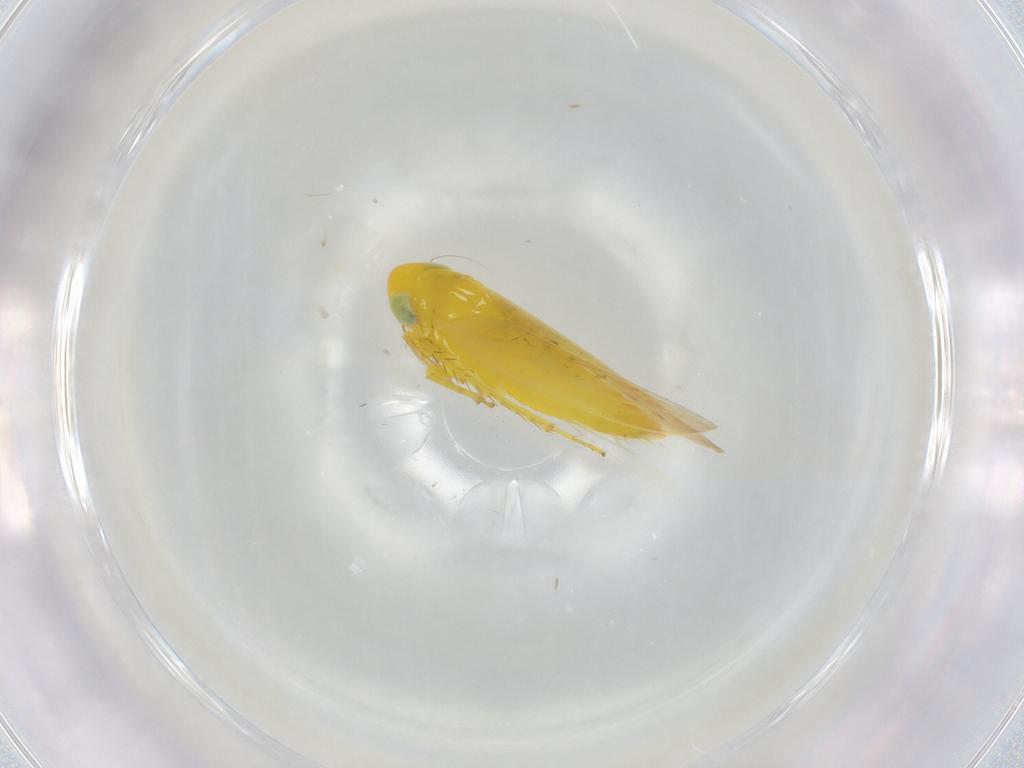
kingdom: Animalia
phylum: Arthropoda
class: Insecta
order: Hemiptera
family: Cicadellidae
